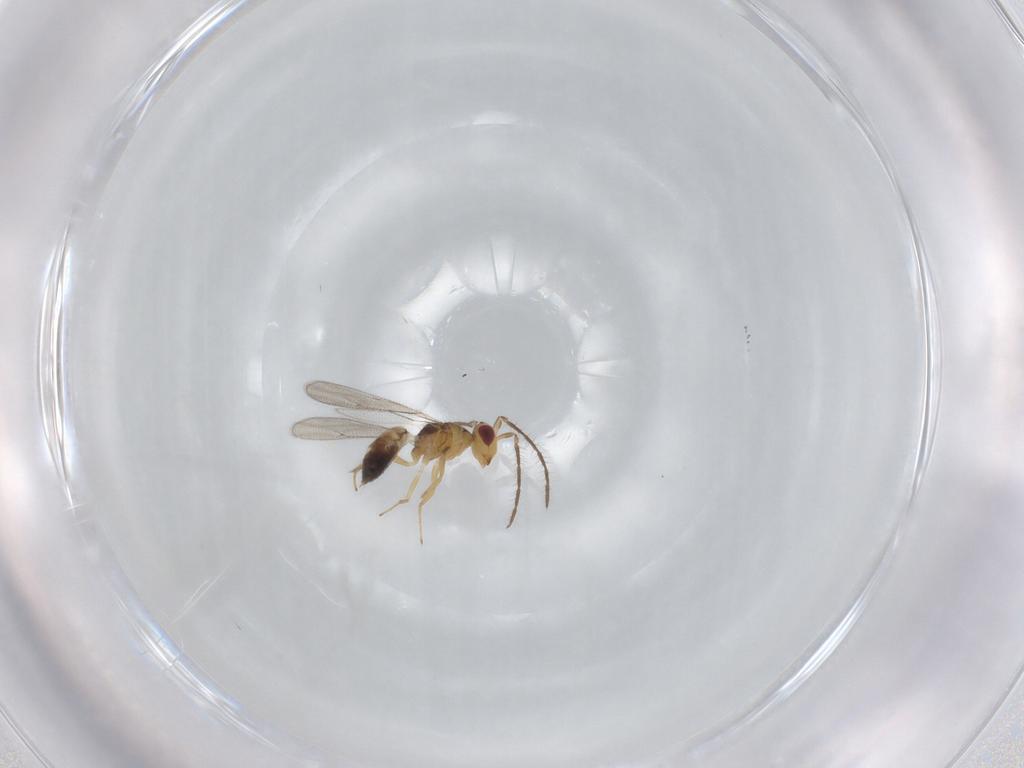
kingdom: Animalia
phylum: Arthropoda
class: Insecta
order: Hymenoptera
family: Eulophidae
